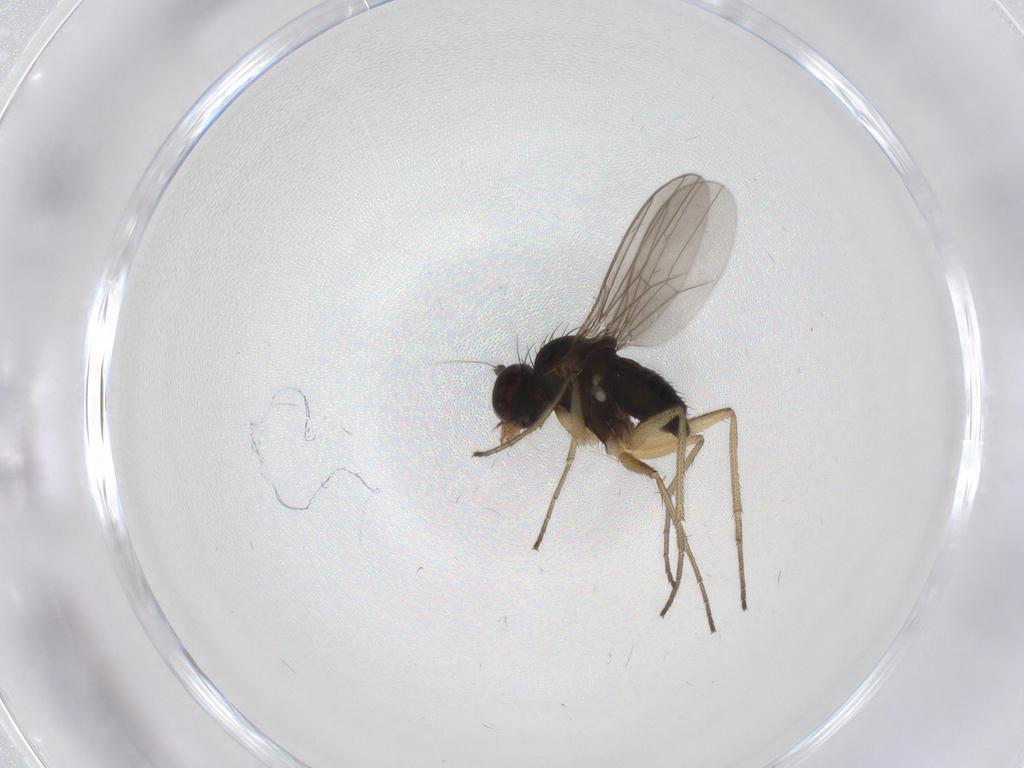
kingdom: Animalia
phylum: Arthropoda
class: Insecta
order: Diptera
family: Dolichopodidae
